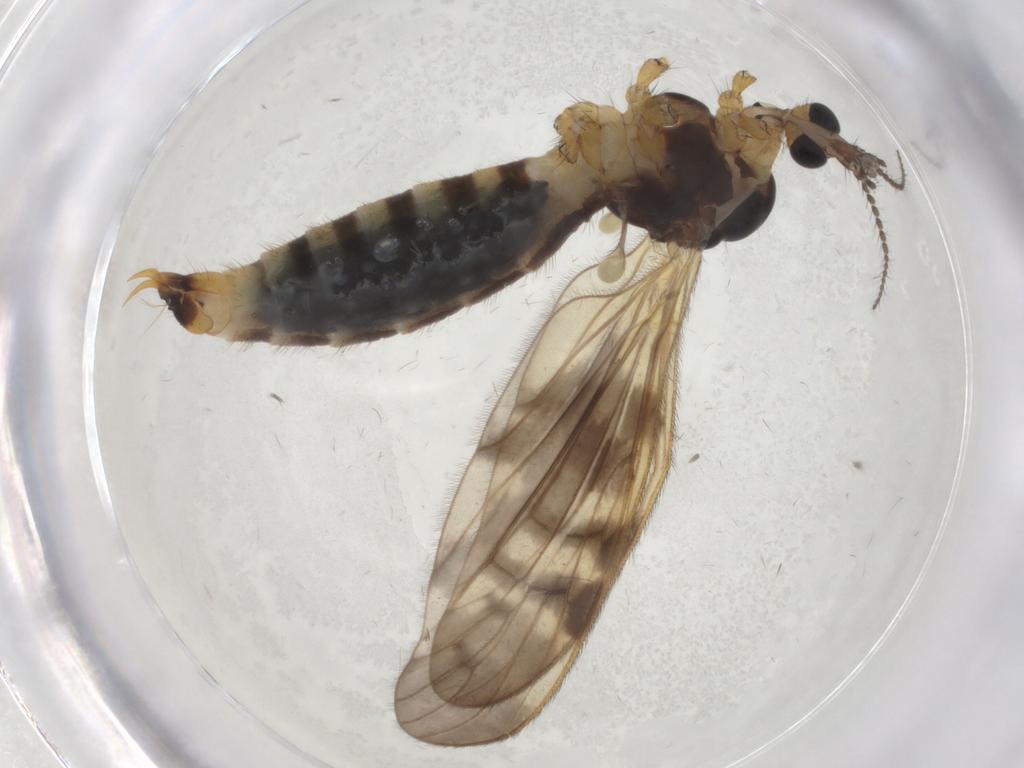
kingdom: Animalia
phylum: Arthropoda
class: Insecta
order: Diptera
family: Limoniidae
